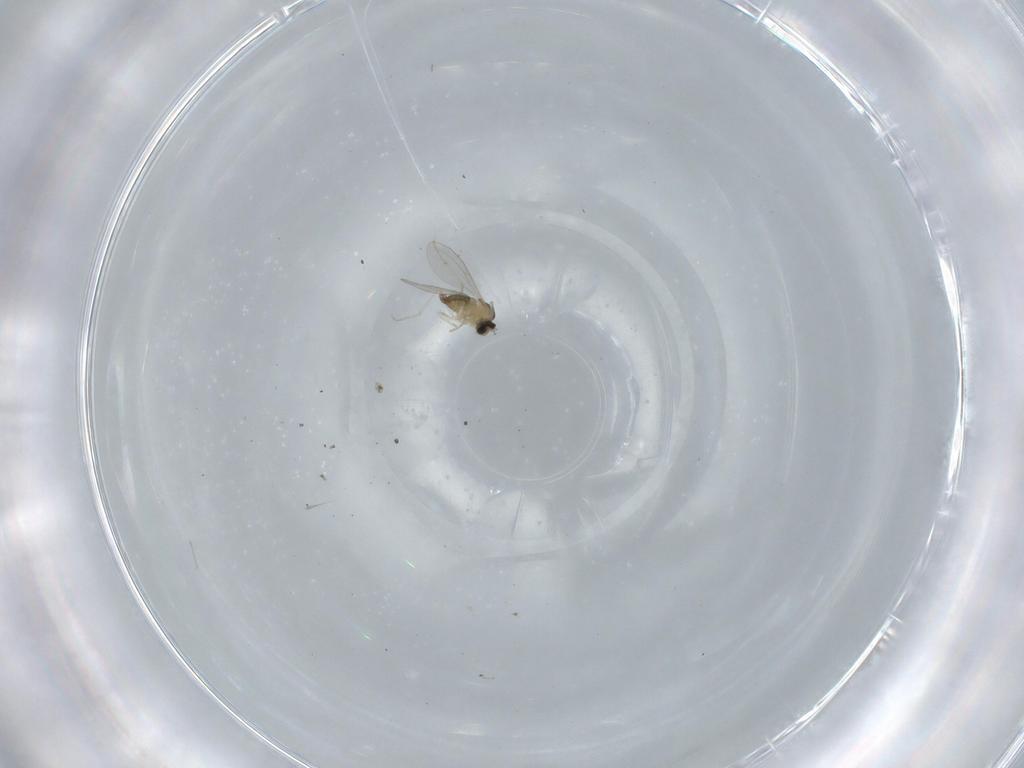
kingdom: Animalia
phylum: Arthropoda
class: Insecta
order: Diptera
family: Cecidomyiidae
